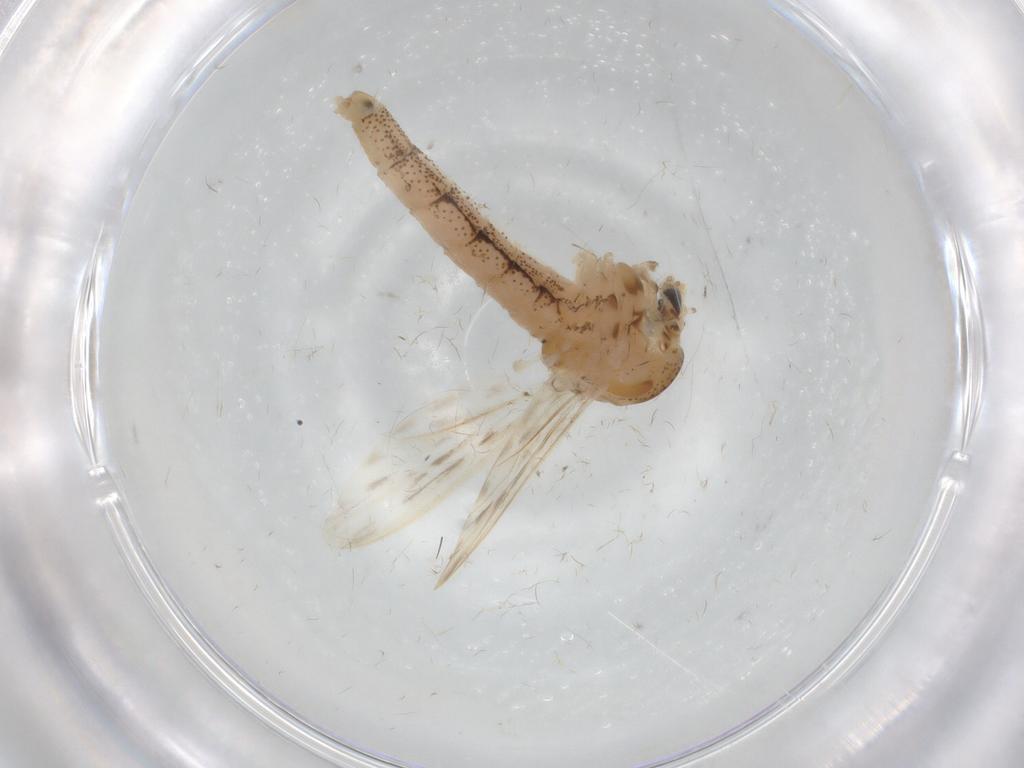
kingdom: Animalia
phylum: Arthropoda
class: Insecta
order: Diptera
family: Chaoboridae
